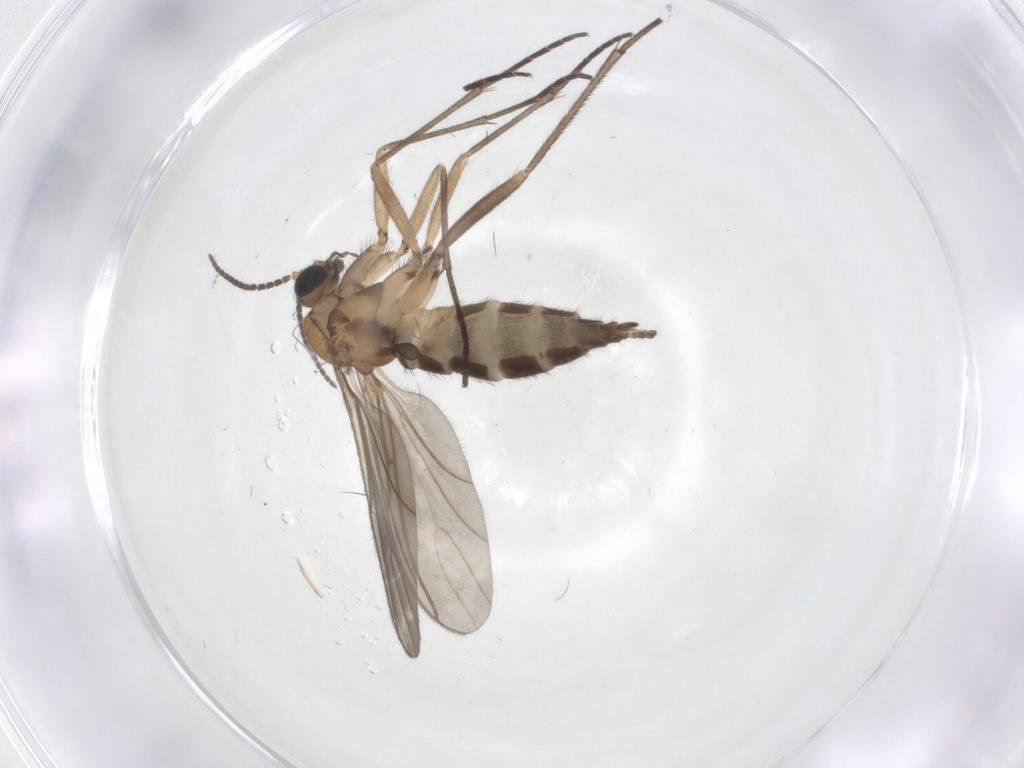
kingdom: Animalia
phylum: Arthropoda
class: Insecta
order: Diptera
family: Sciaridae
